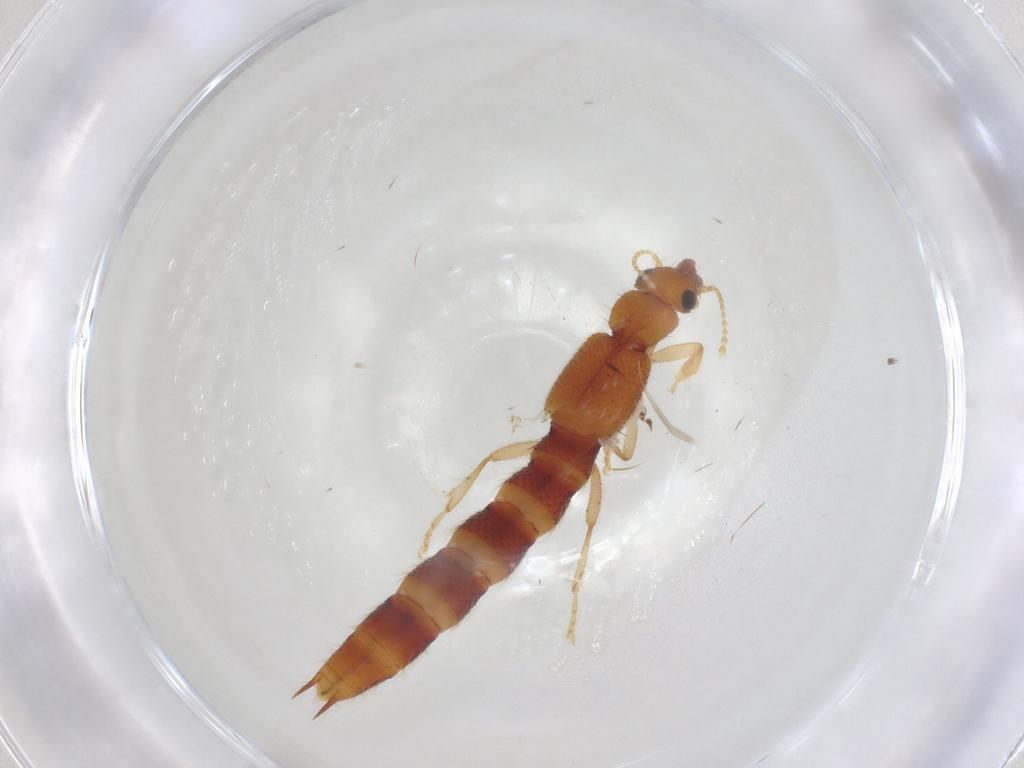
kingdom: Animalia
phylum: Arthropoda
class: Insecta
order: Coleoptera
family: Staphylinidae
